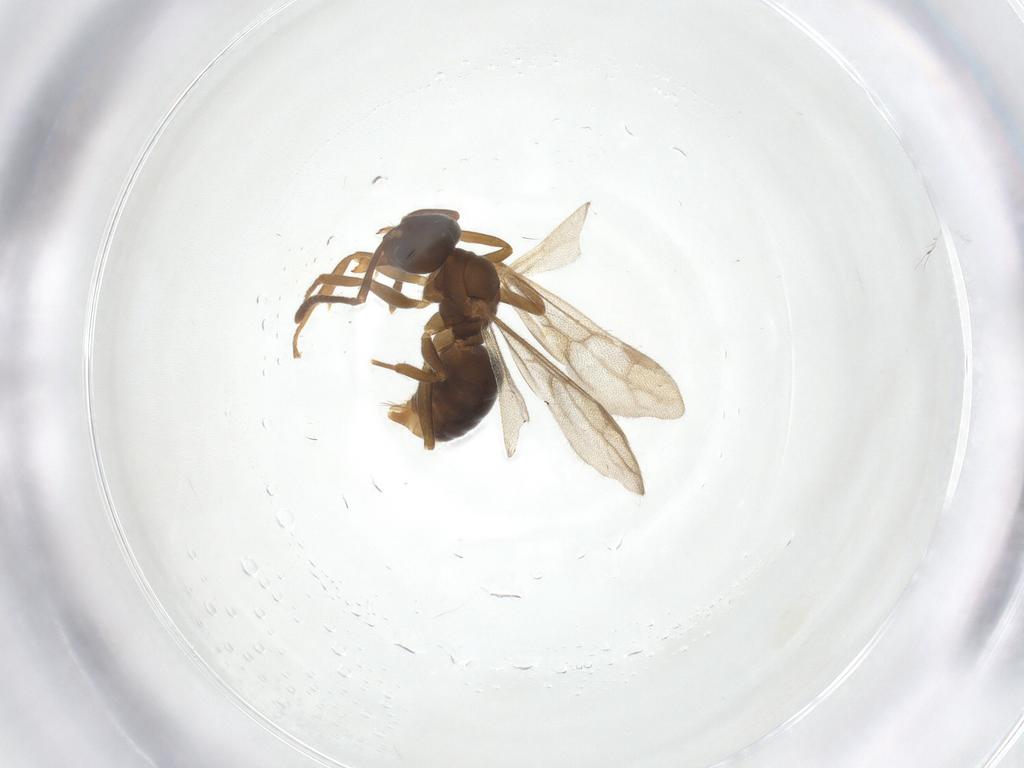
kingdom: Animalia
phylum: Arthropoda
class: Insecta
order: Hymenoptera
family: Formicidae
